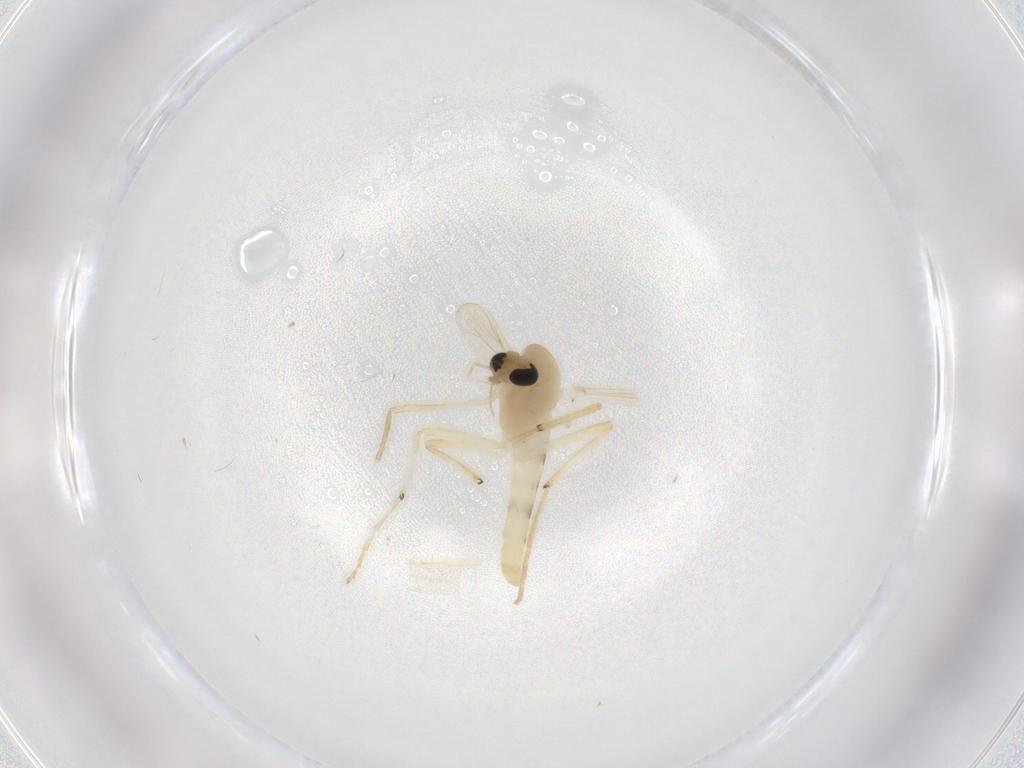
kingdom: Animalia
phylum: Arthropoda
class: Insecta
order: Diptera
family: Chironomidae
